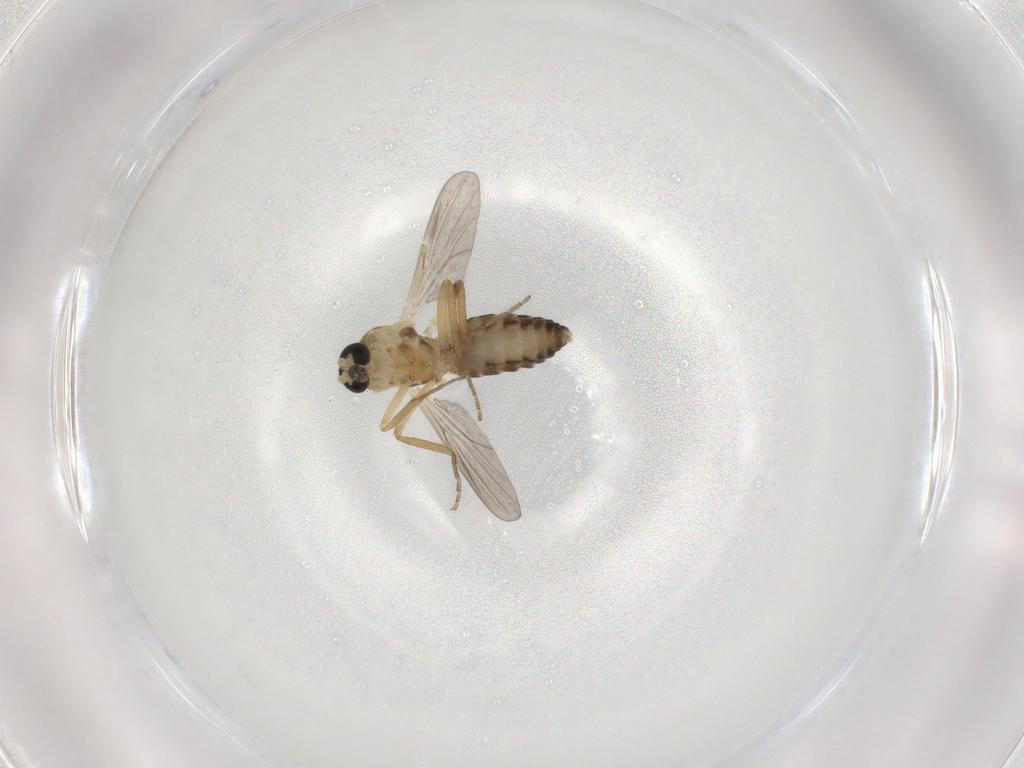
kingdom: Animalia
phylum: Arthropoda
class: Insecta
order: Diptera
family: Ceratopogonidae
